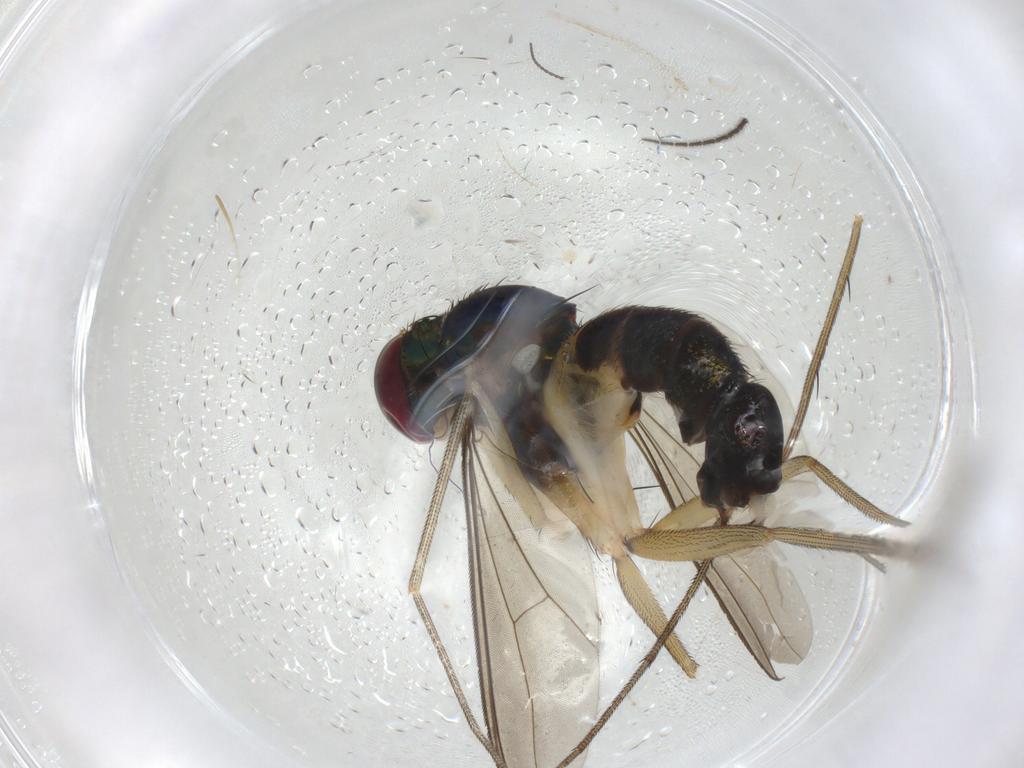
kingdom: Animalia
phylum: Arthropoda
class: Insecta
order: Diptera
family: Dolichopodidae
